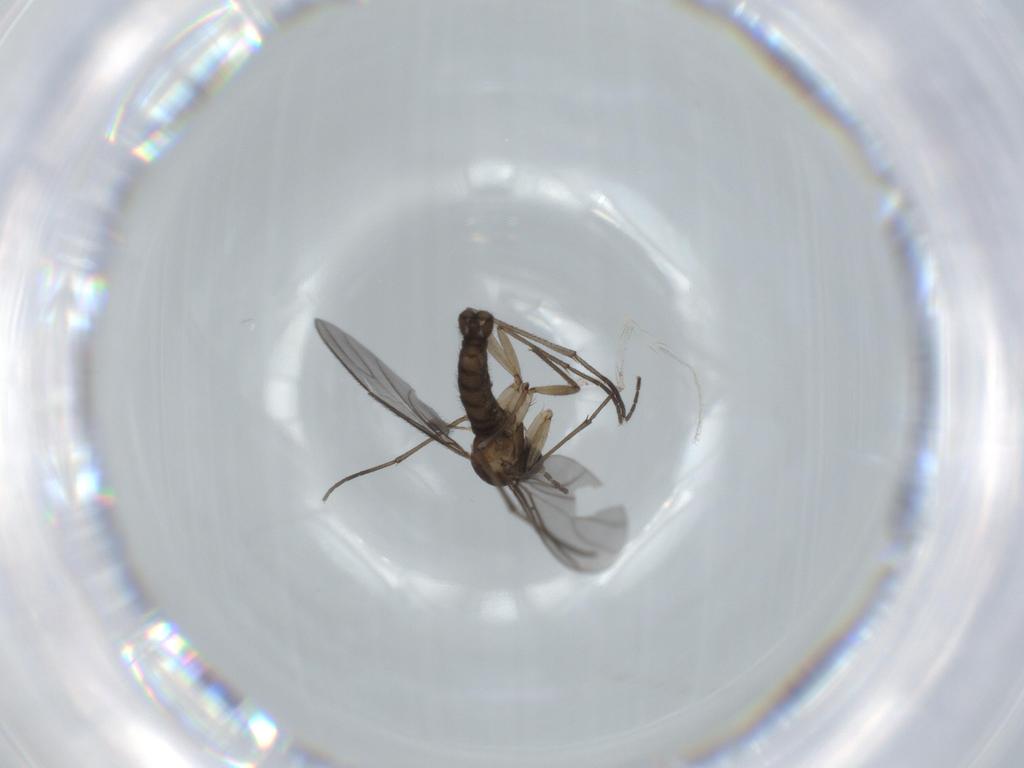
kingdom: Animalia
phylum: Arthropoda
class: Insecta
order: Diptera
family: Sciaridae
